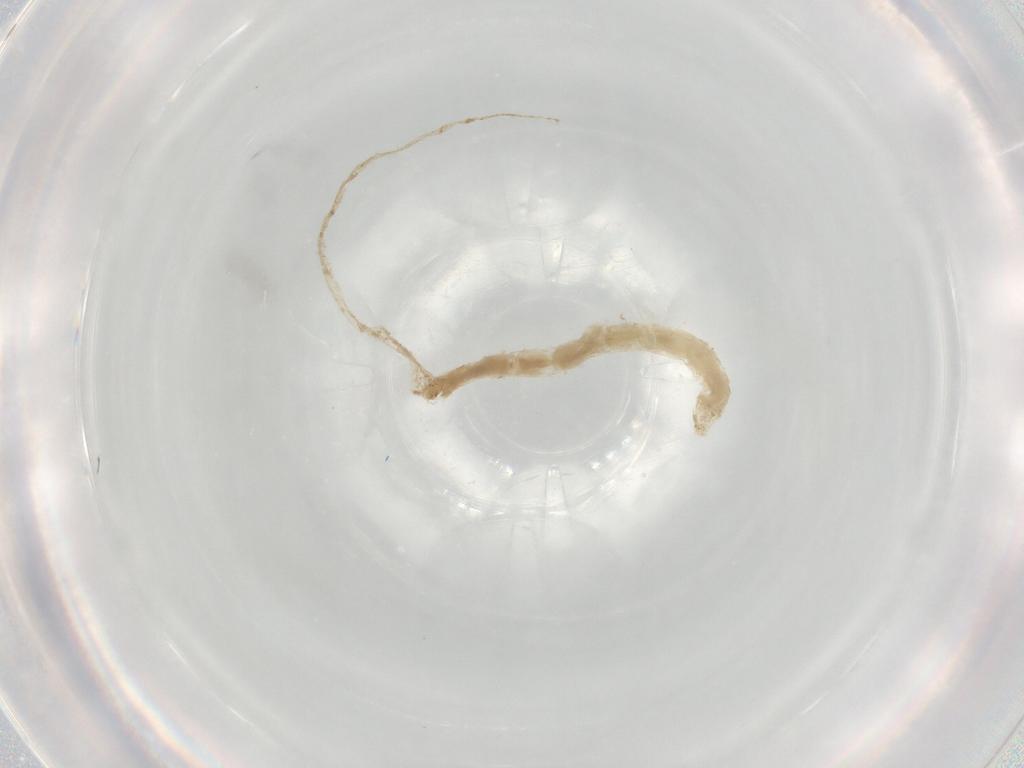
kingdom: Animalia
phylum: Arthropoda
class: Insecta
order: Diptera
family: Chironomidae
